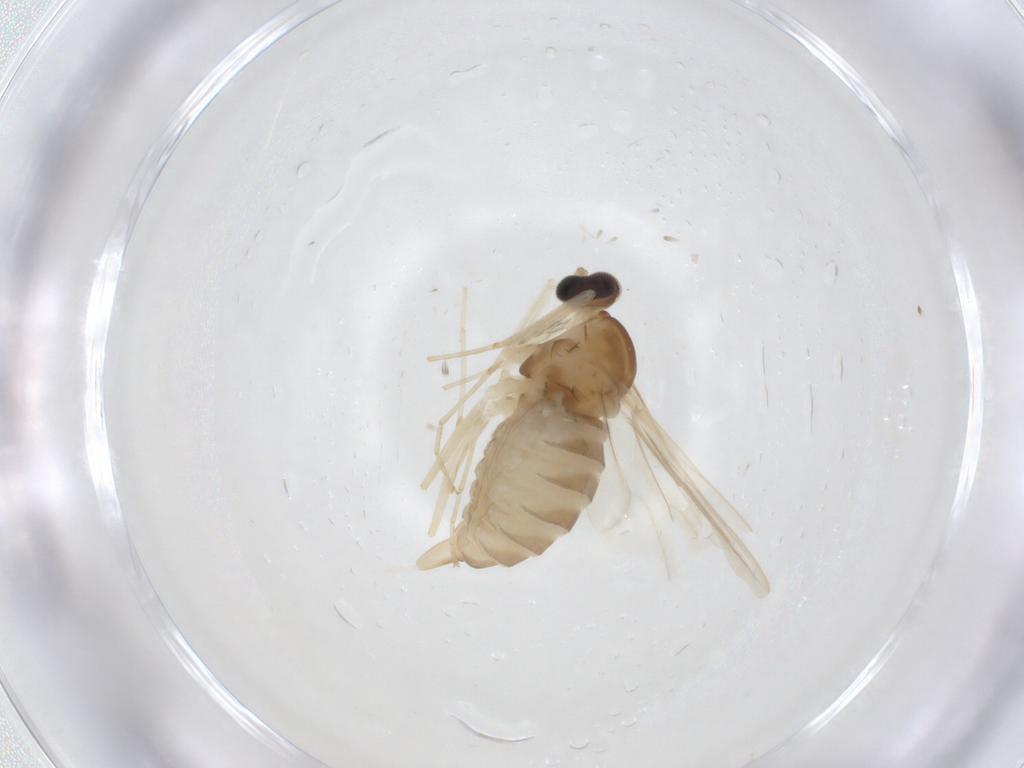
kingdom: Animalia
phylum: Arthropoda
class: Insecta
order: Diptera
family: Cecidomyiidae
